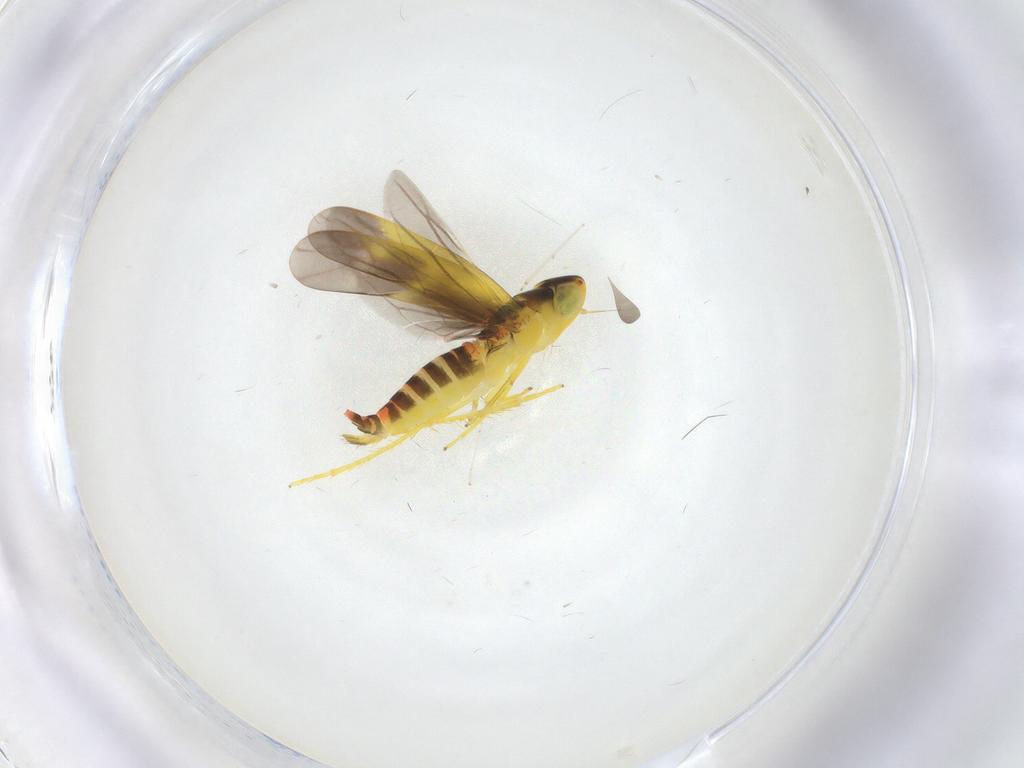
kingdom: Animalia
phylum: Arthropoda
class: Insecta
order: Hemiptera
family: Cicadellidae
